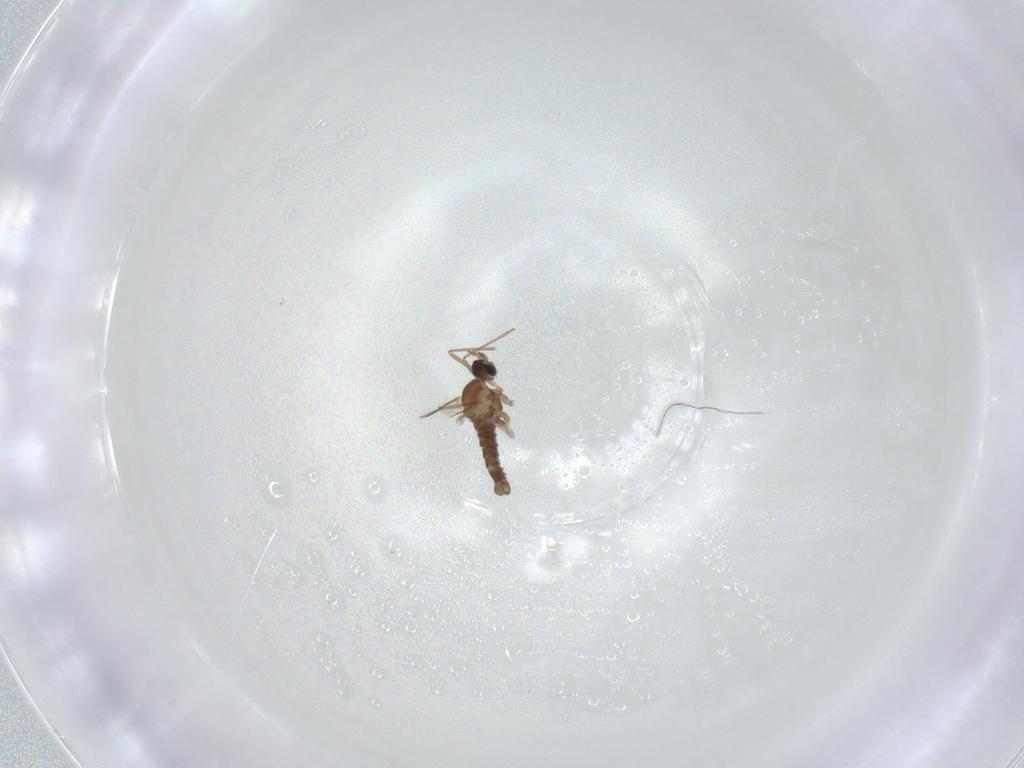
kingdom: Animalia
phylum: Arthropoda
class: Insecta
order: Diptera
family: Cecidomyiidae
